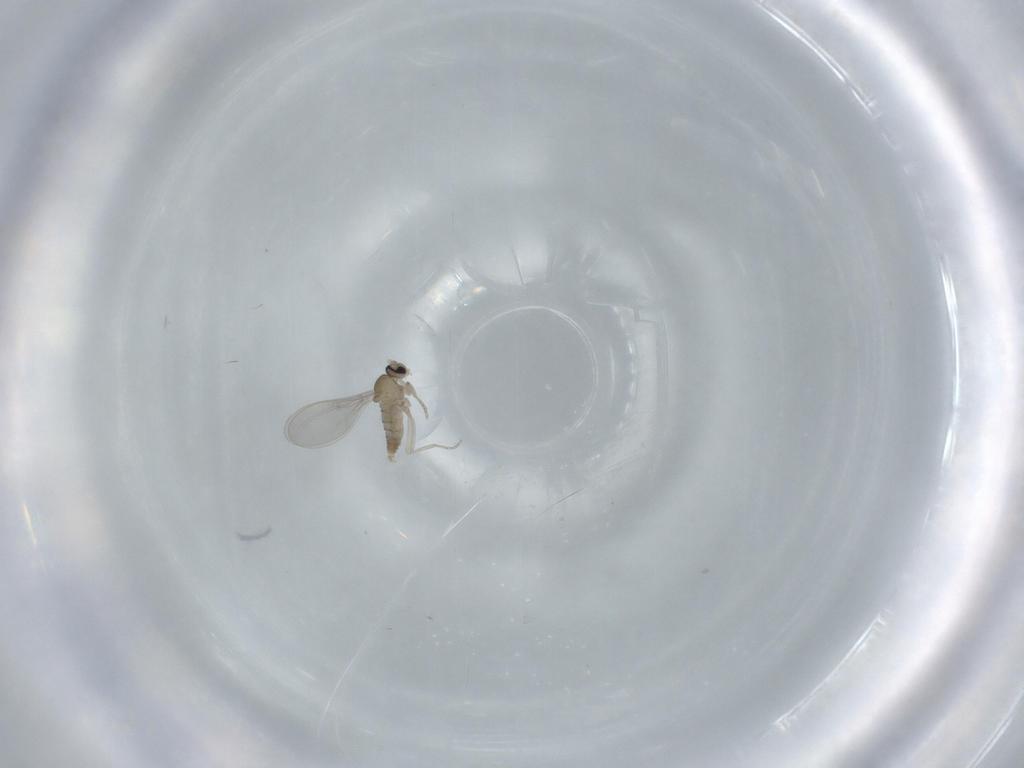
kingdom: Animalia
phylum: Arthropoda
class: Insecta
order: Diptera
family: Cecidomyiidae
